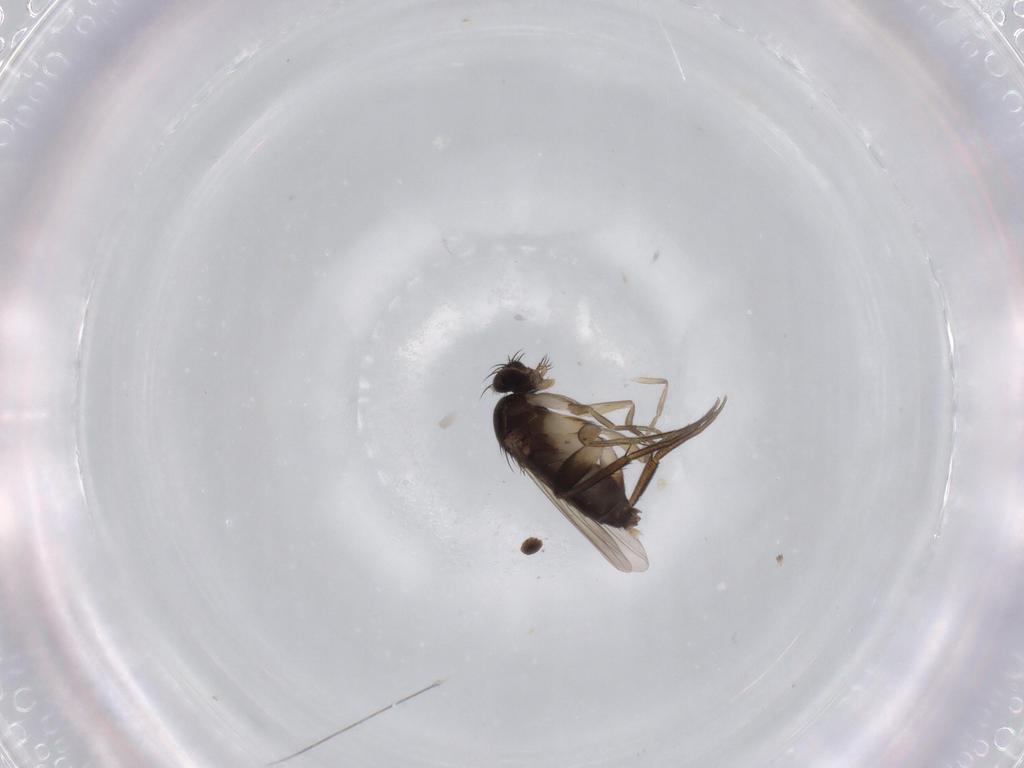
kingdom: Animalia
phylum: Arthropoda
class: Insecta
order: Diptera
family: Phoridae
